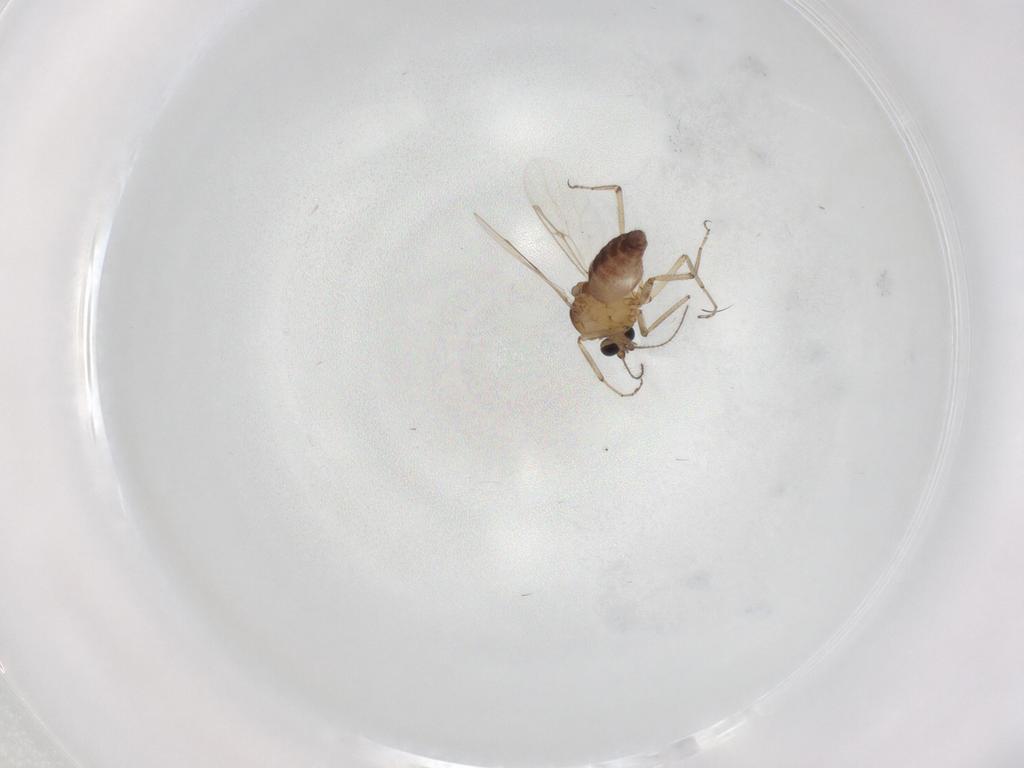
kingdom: Animalia
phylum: Arthropoda
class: Insecta
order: Diptera
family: Ceratopogonidae
